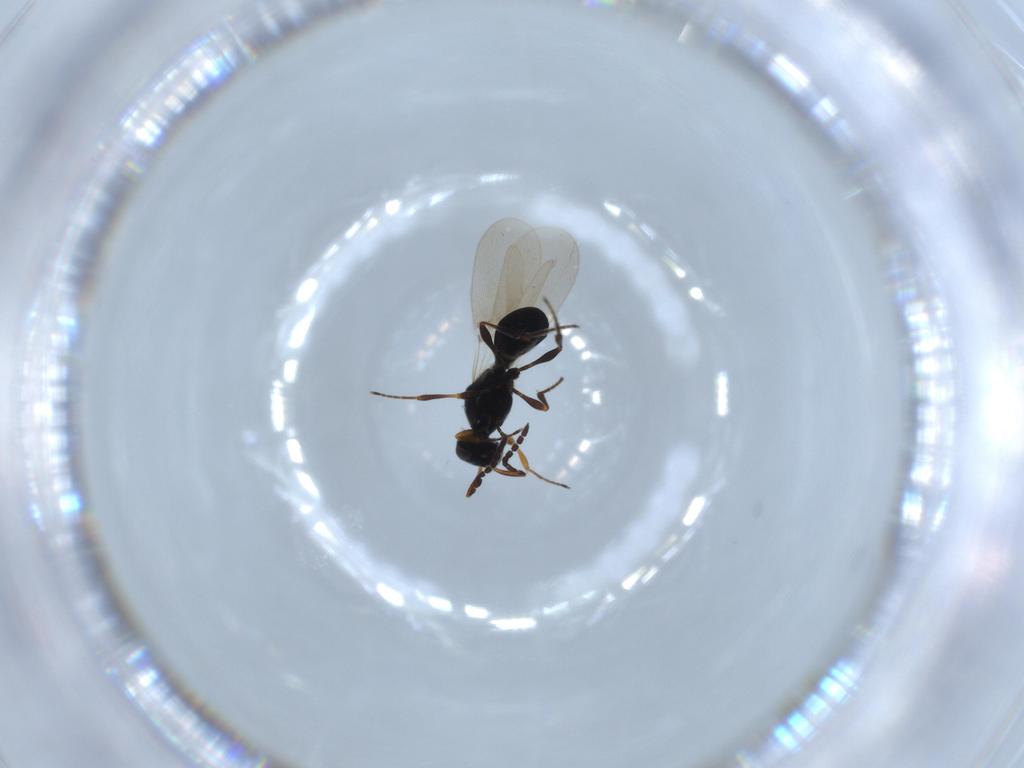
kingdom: Animalia
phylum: Arthropoda
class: Insecta
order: Hymenoptera
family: Platygastridae
